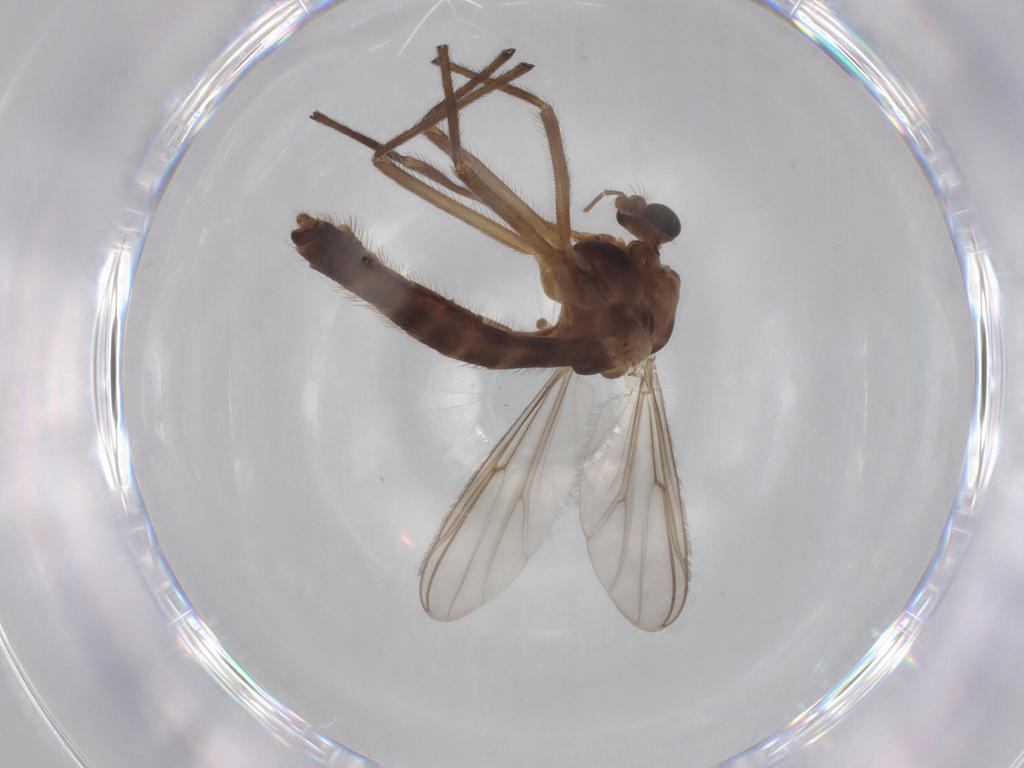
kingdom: Animalia
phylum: Arthropoda
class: Insecta
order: Diptera
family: Chironomidae
